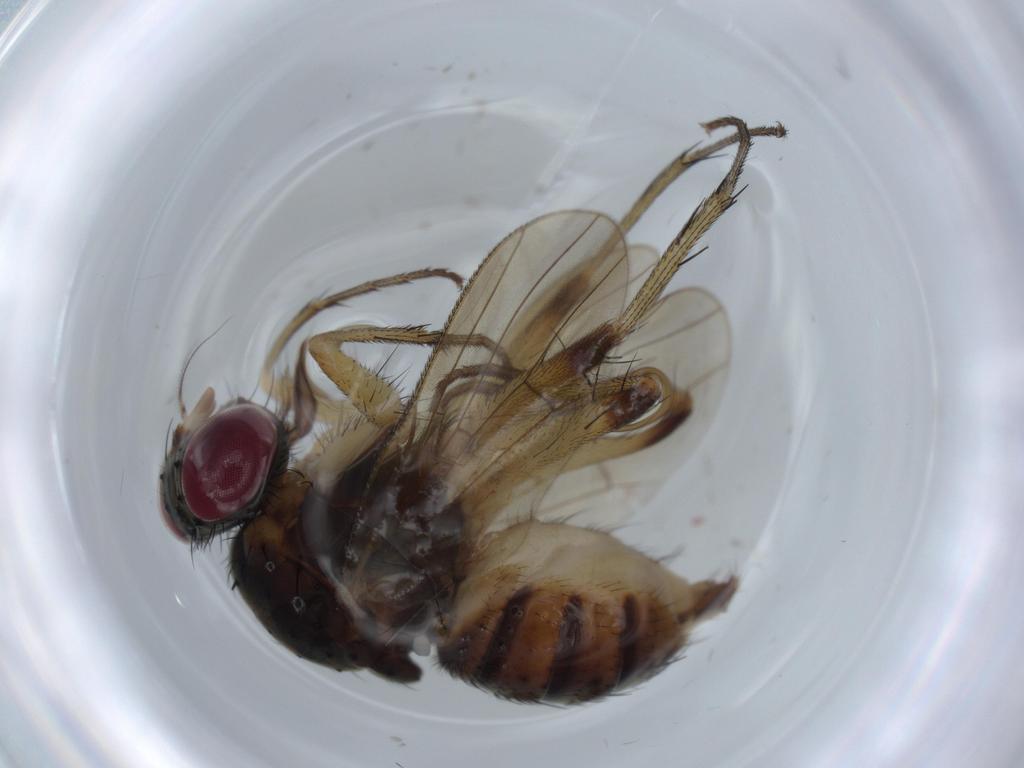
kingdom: Animalia
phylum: Arthropoda
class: Insecta
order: Diptera
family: Muscidae
